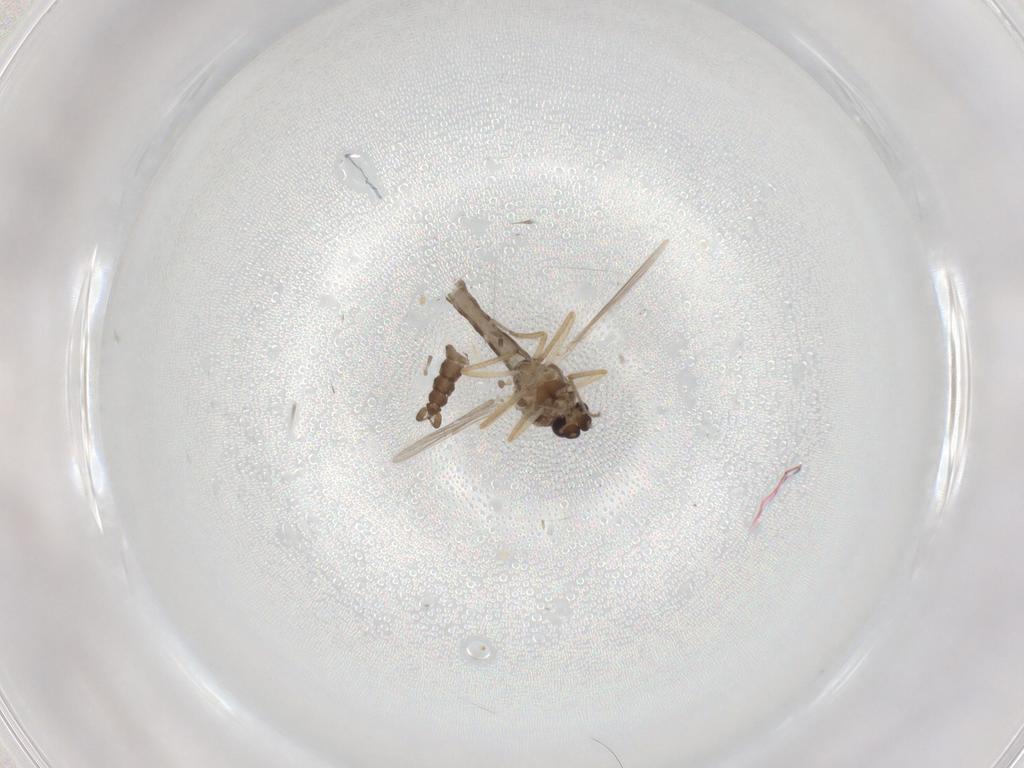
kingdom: Animalia
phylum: Arthropoda
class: Insecta
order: Diptera
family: Ceratopogonidae
